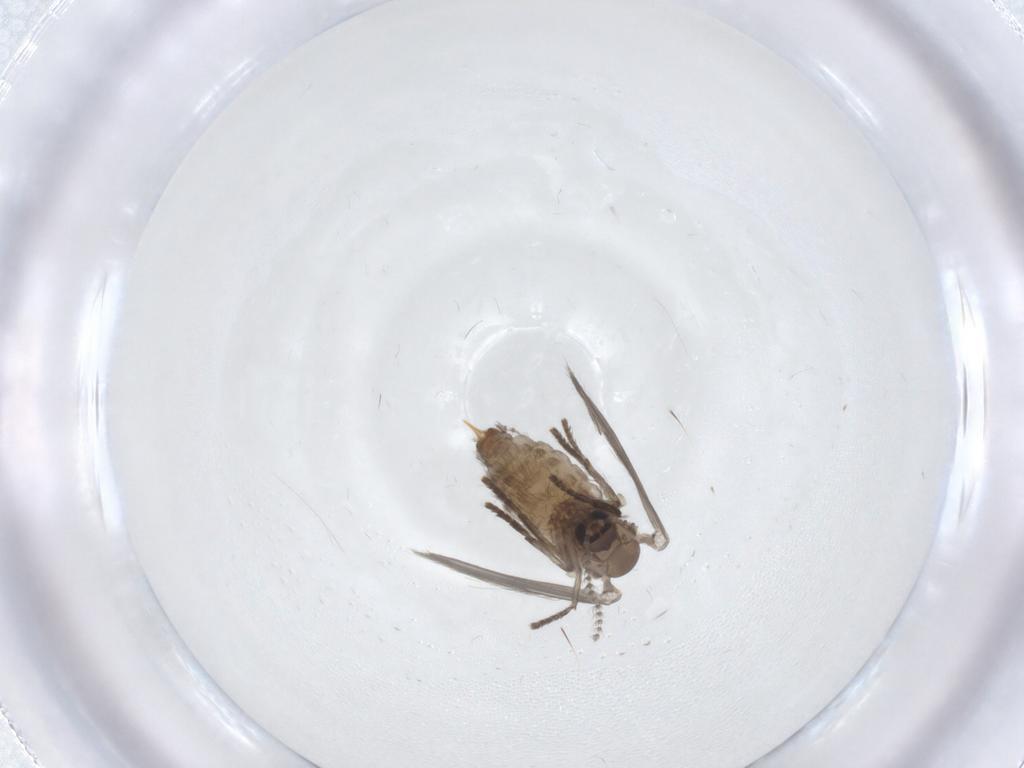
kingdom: Animalia
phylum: Arthropoda
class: Insecta
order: Diptera
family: Psychodidae
